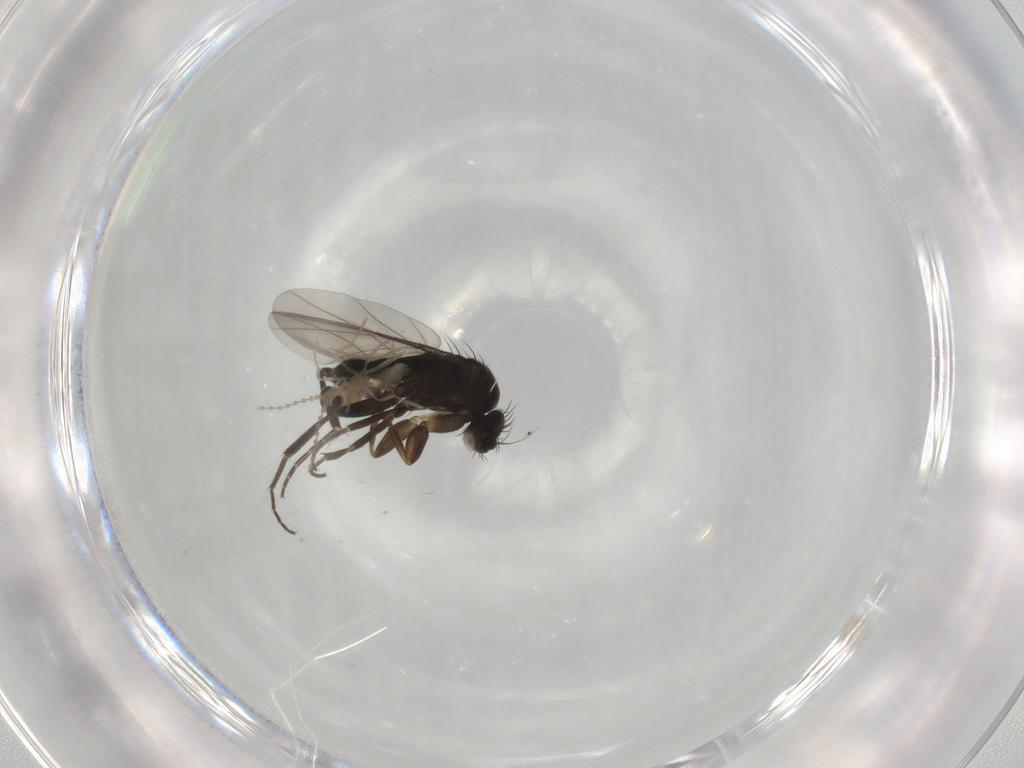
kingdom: Animalia
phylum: Arthropoda
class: Insecta
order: Diptera
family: Phoridae
